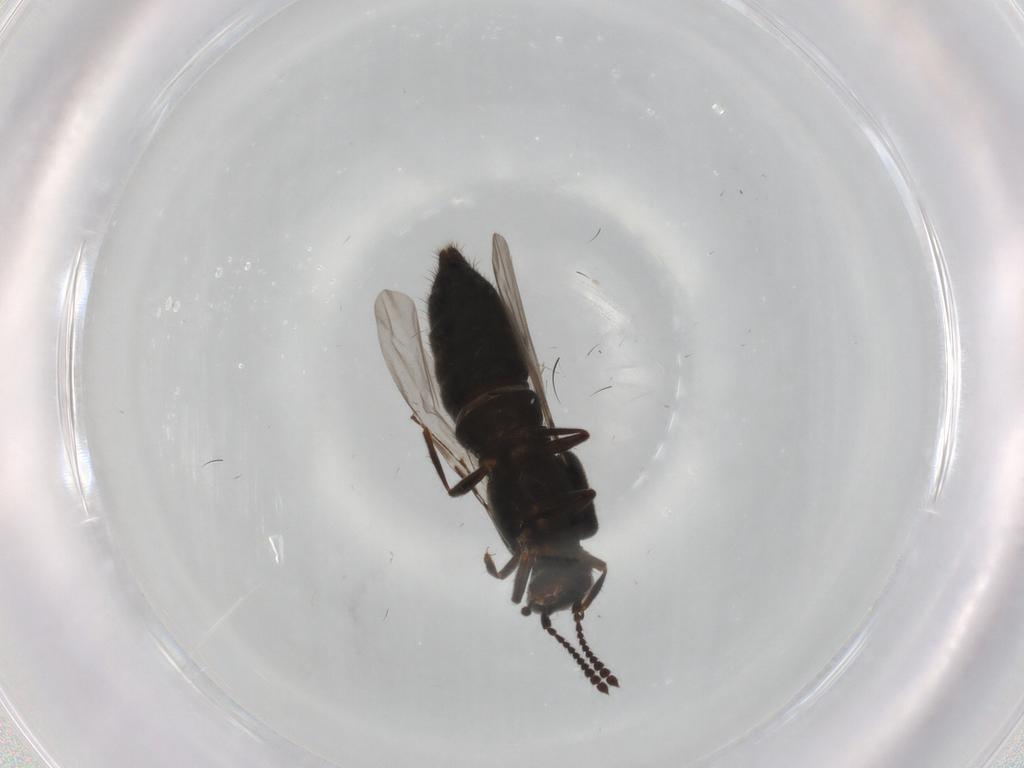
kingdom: Animalia
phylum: Arthropoda
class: Insecta
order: Coleoptera
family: Staphylinidae
